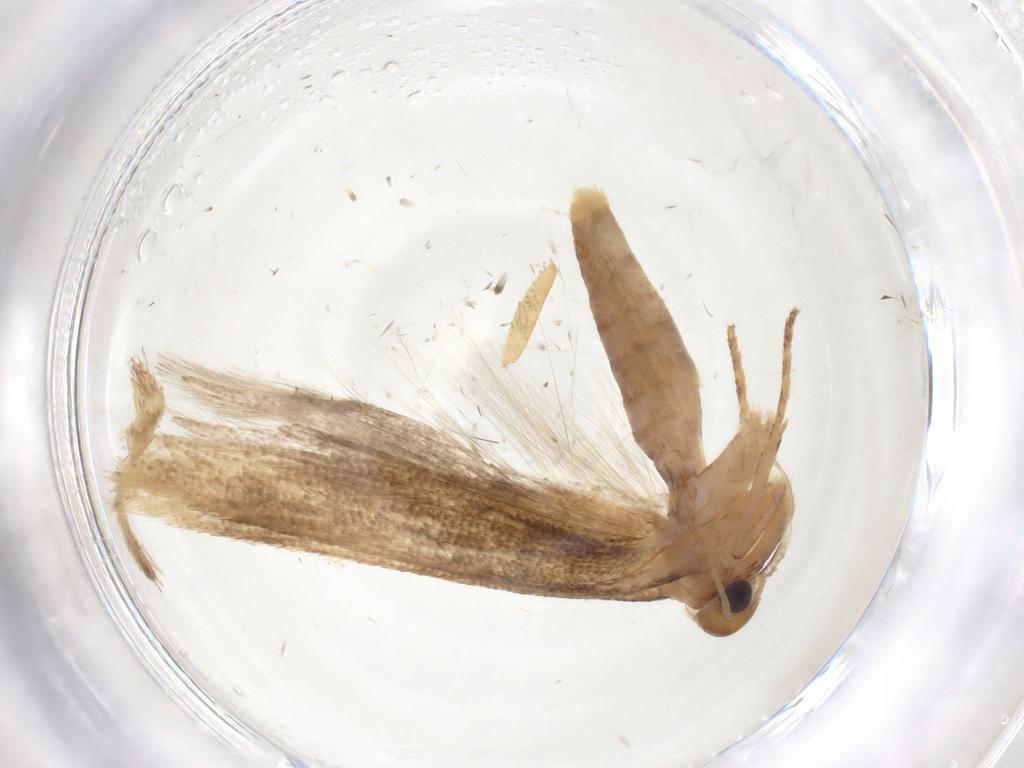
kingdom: Animalia
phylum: Arthropoda
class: Insecta
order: Lepidoptera
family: Gelechiidae
